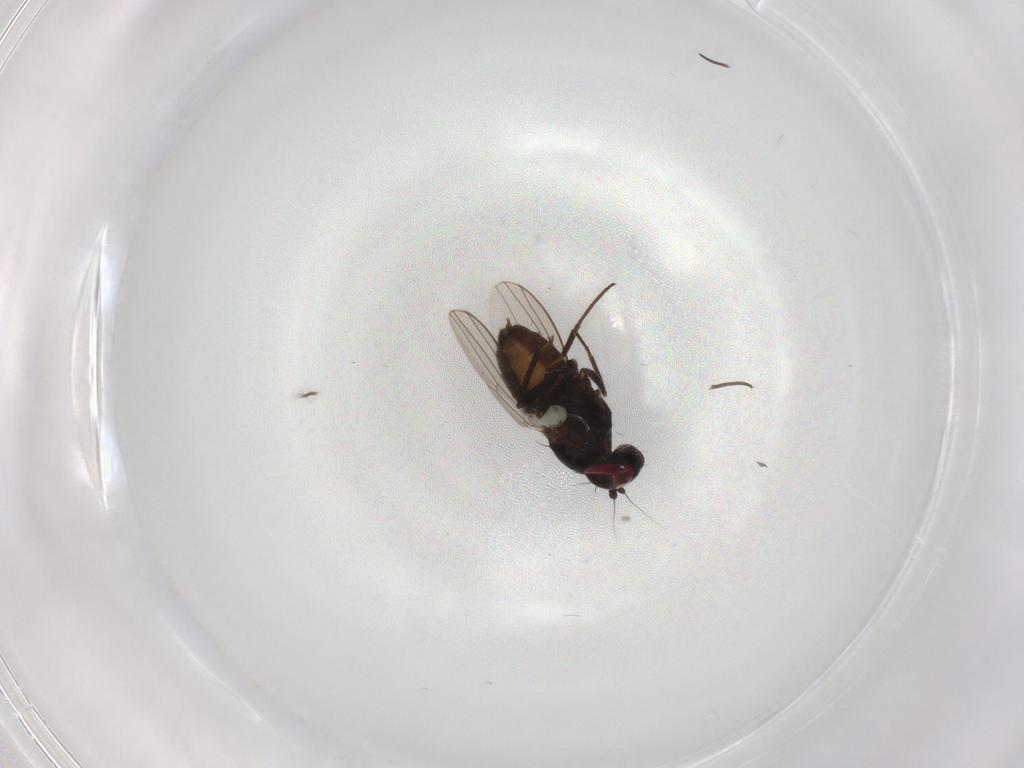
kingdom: Animalia
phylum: Arthropoda
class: Insecta
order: Diptera
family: Dolichopodidae
